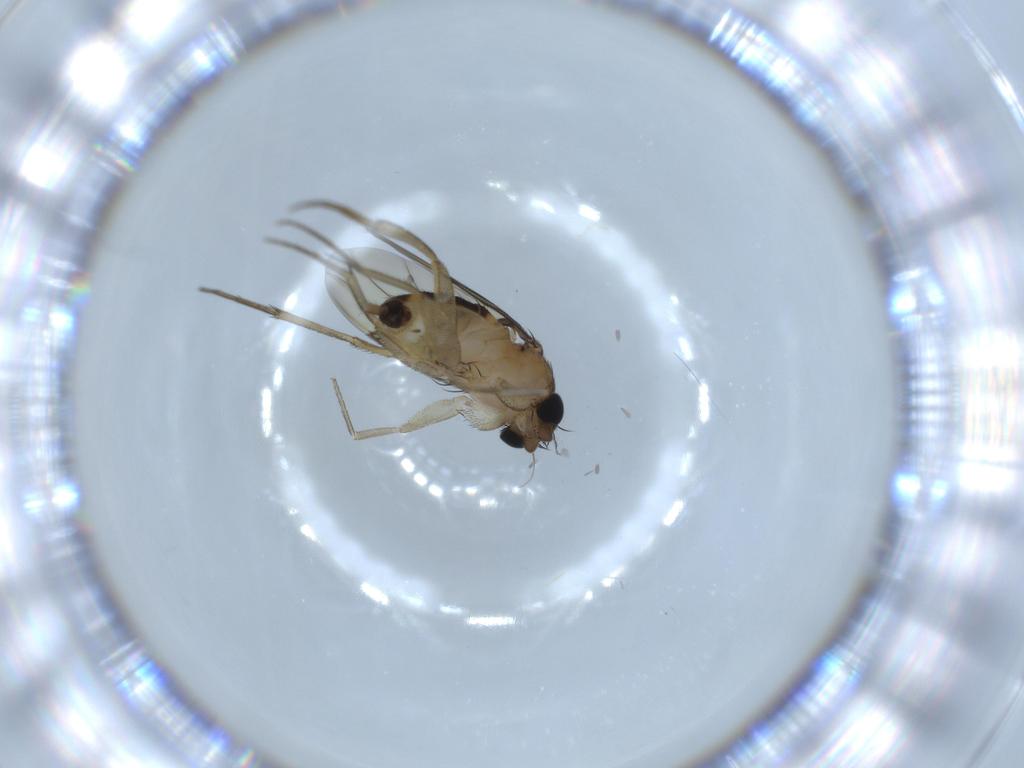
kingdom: Animalia
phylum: Arthropoda
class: Insecta
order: Diptera
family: Phoridae
